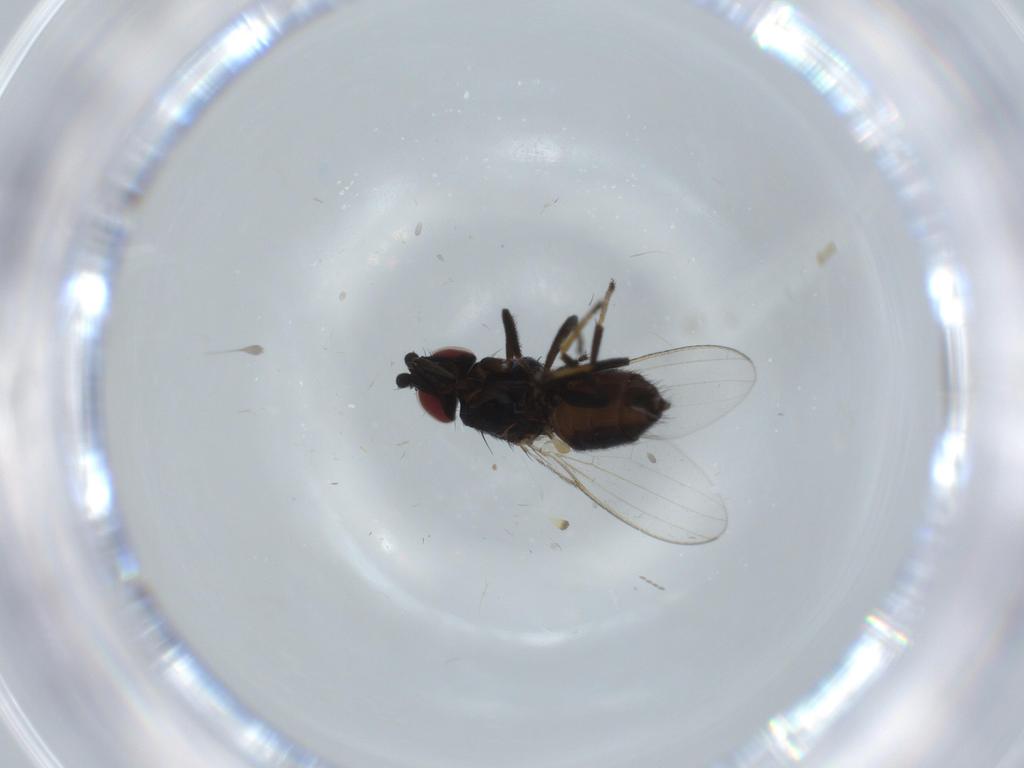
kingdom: Animalia
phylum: Arthropoda
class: Insecta
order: Diptera
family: Milichiidae
